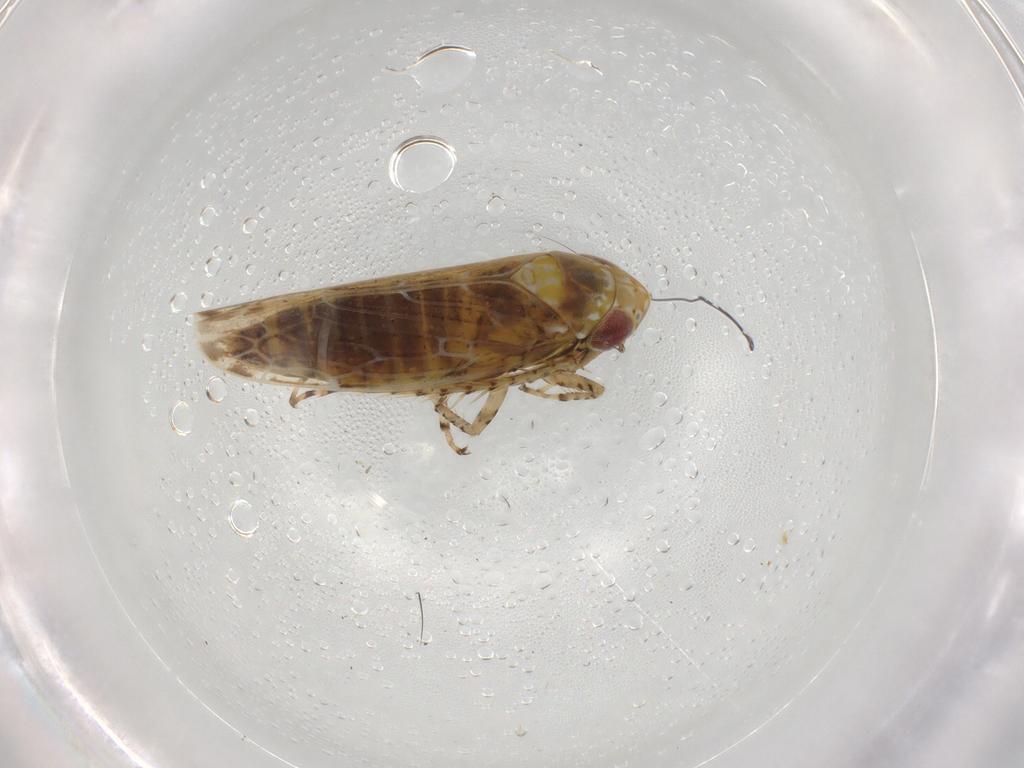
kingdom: Animalia
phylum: Arthropoda
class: Insecta
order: Hemiptera
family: Cicadellidae
